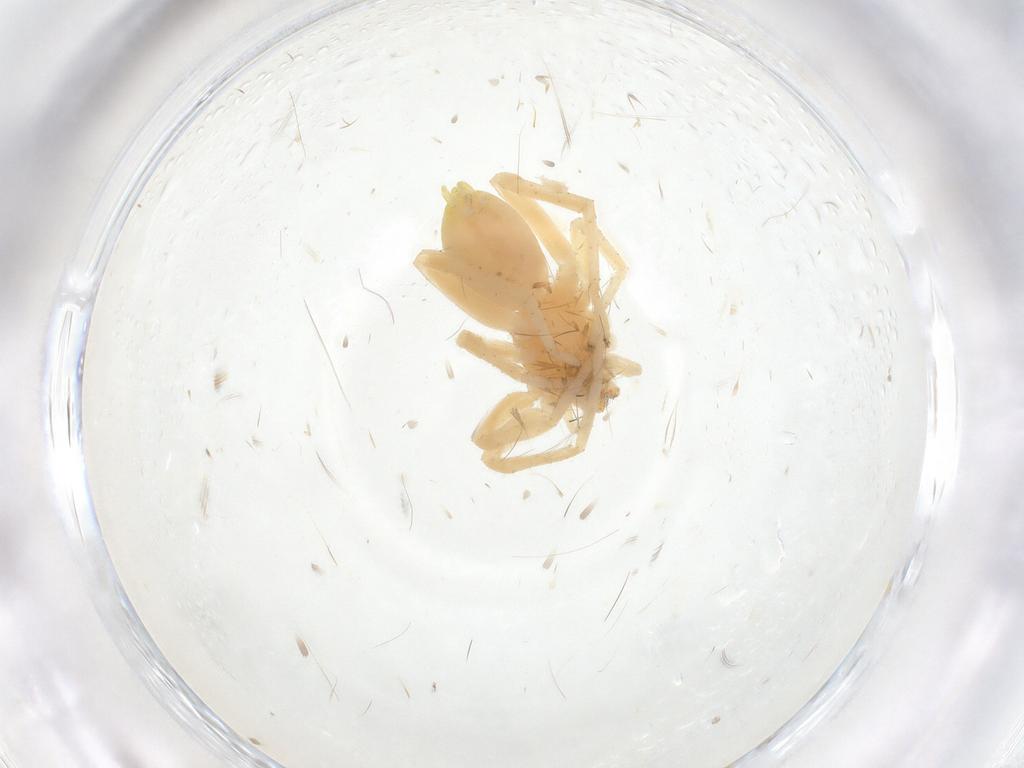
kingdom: Animalia
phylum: Arthropoda
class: Arachnida
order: Araneae
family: Anyphaenidae
